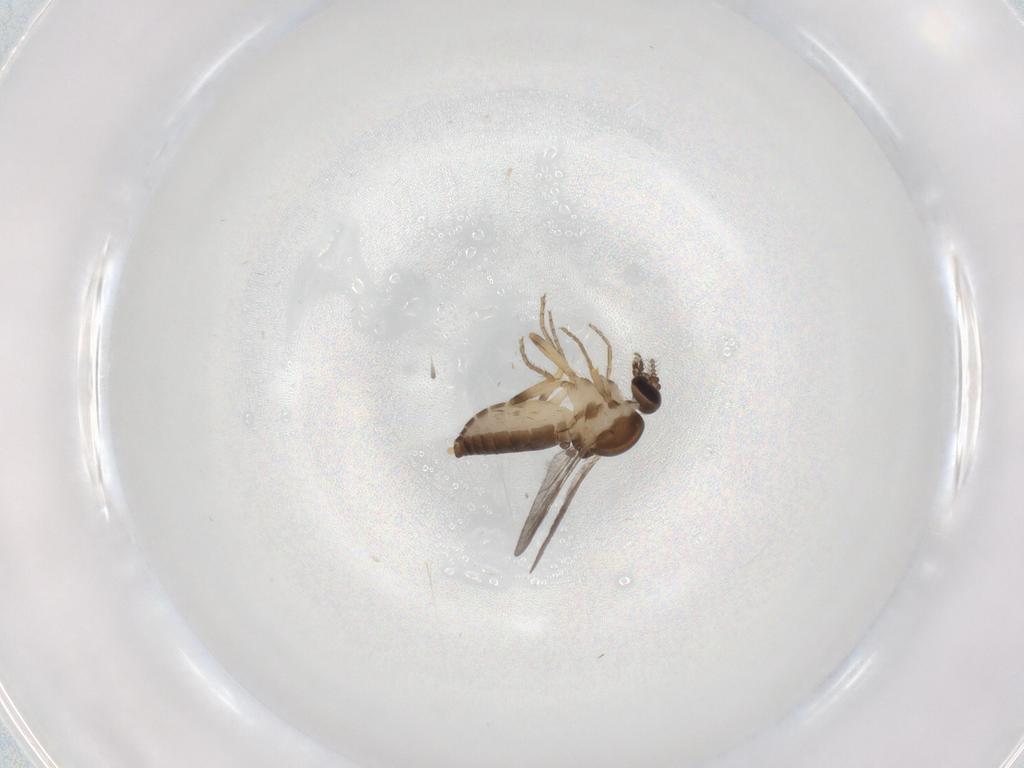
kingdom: Animalia
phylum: Arthropoda
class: Insecta
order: Diptera
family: Ceratopogonidae
